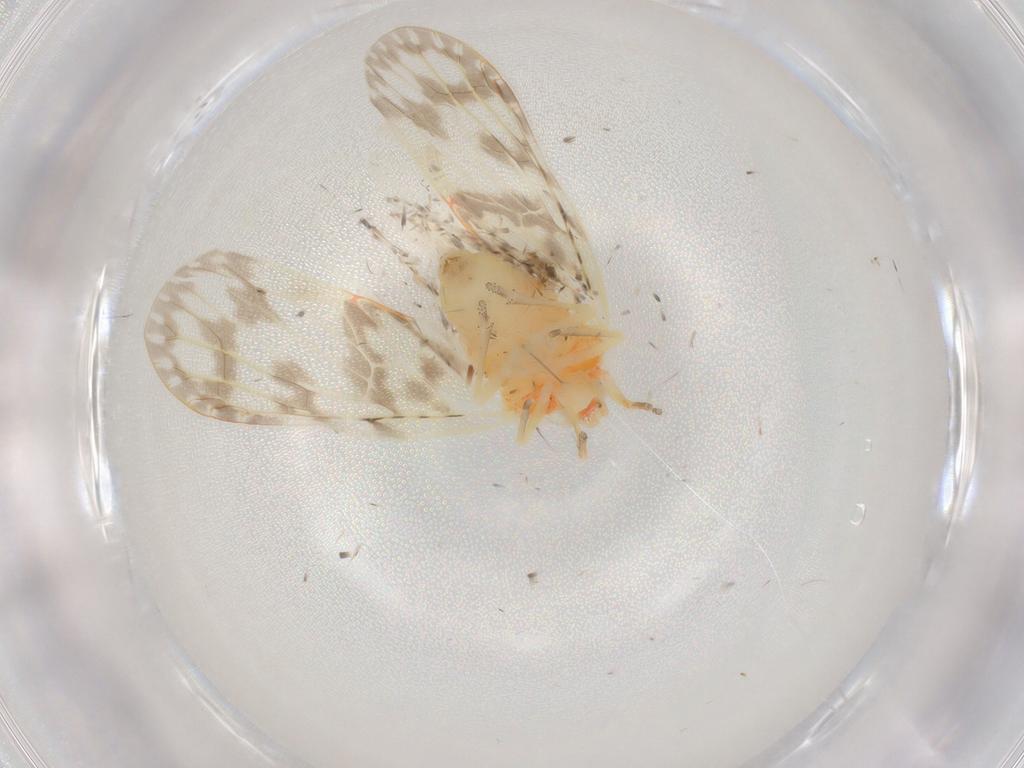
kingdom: Animalia
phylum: Arthropoda
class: Insecta
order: Hemiptera
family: Derbidae
